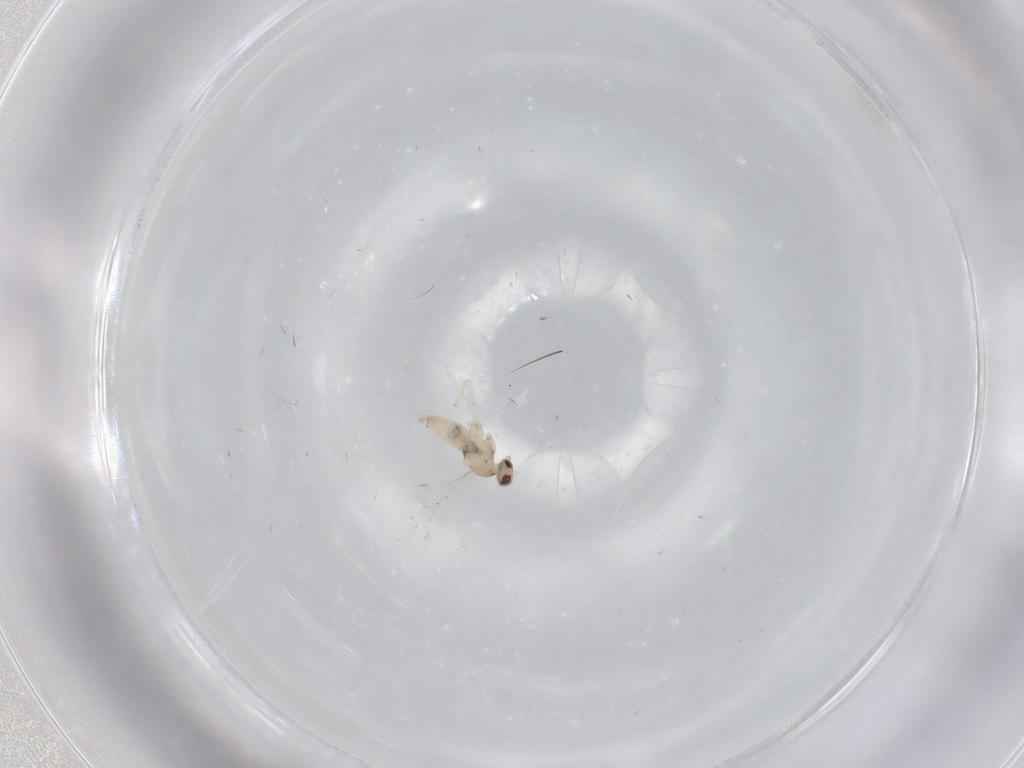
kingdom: Animalia
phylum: Arthropoda
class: Insecta
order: Diptera
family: Cecidomyiidae
